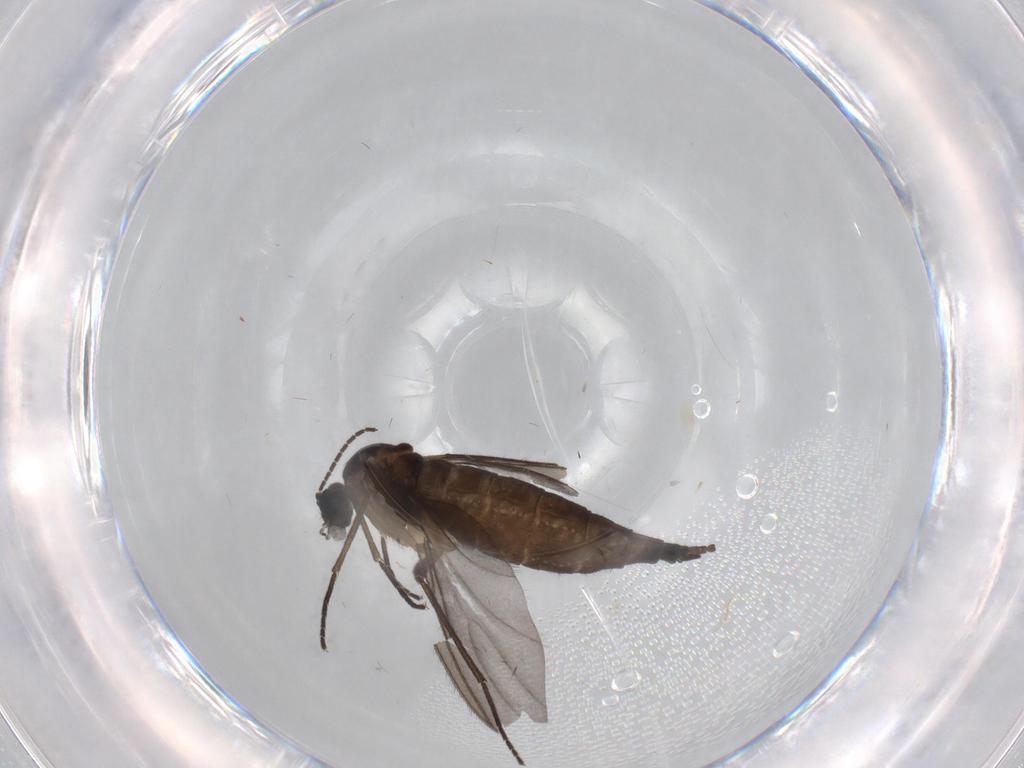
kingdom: Animalia
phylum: Arthropoda
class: Insecta
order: Diptera
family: Sciaridae
